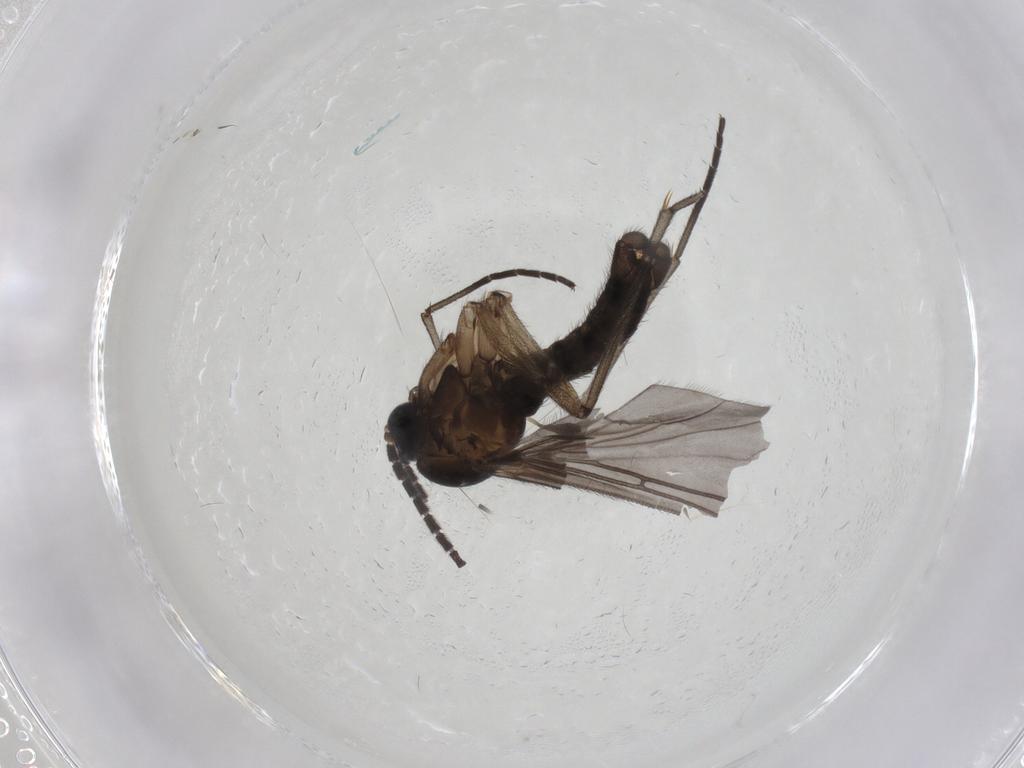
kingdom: Animalia
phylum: Arthropoda
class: Insecta
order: Diptera
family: Sciaridae
